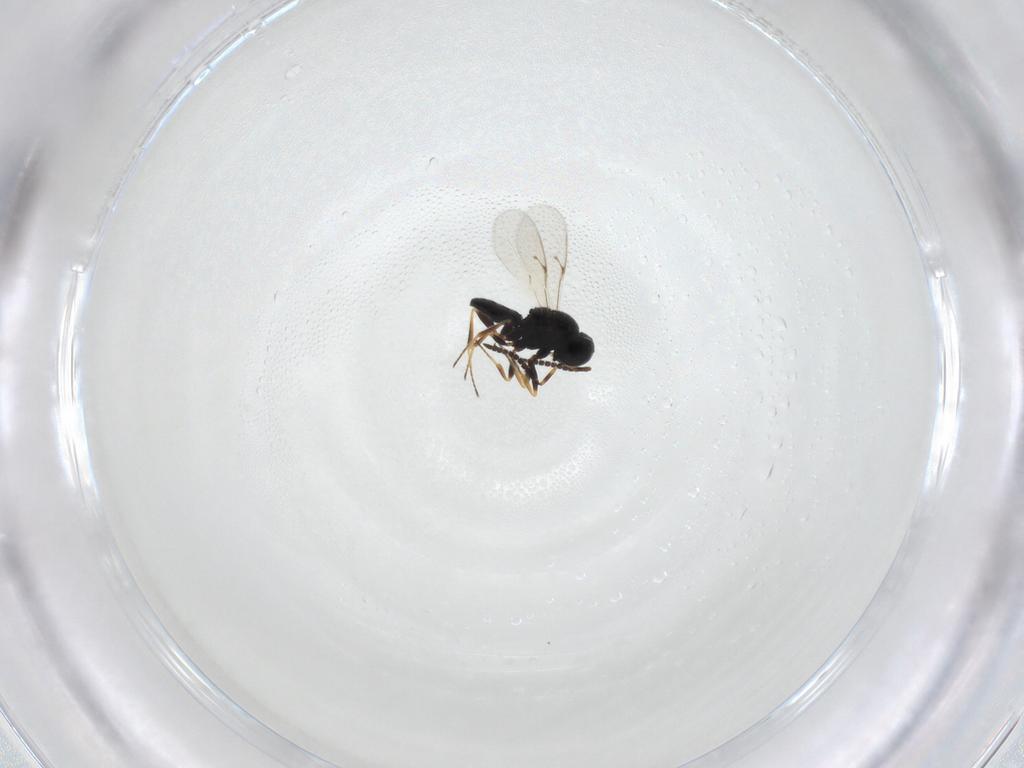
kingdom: Animalia
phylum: Arthropoda
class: Insecta
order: Hymenoptera
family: Scelionidae
